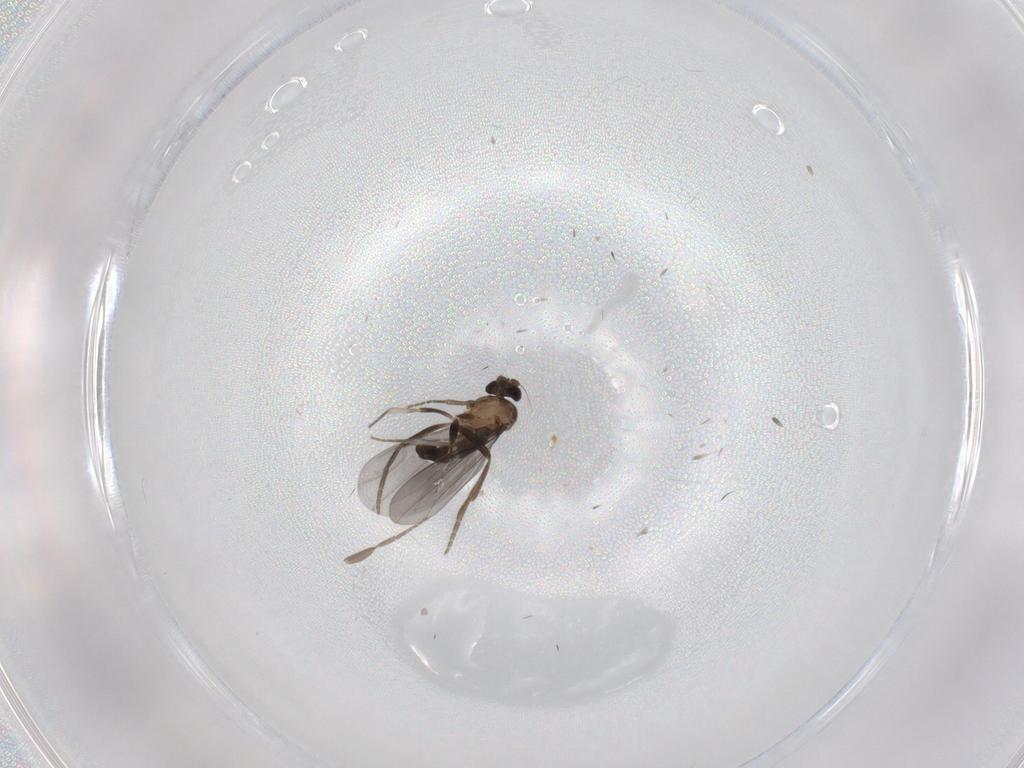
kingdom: Animalia
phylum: Arthropoda
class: Insecta
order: Diptera
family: Phoridae
